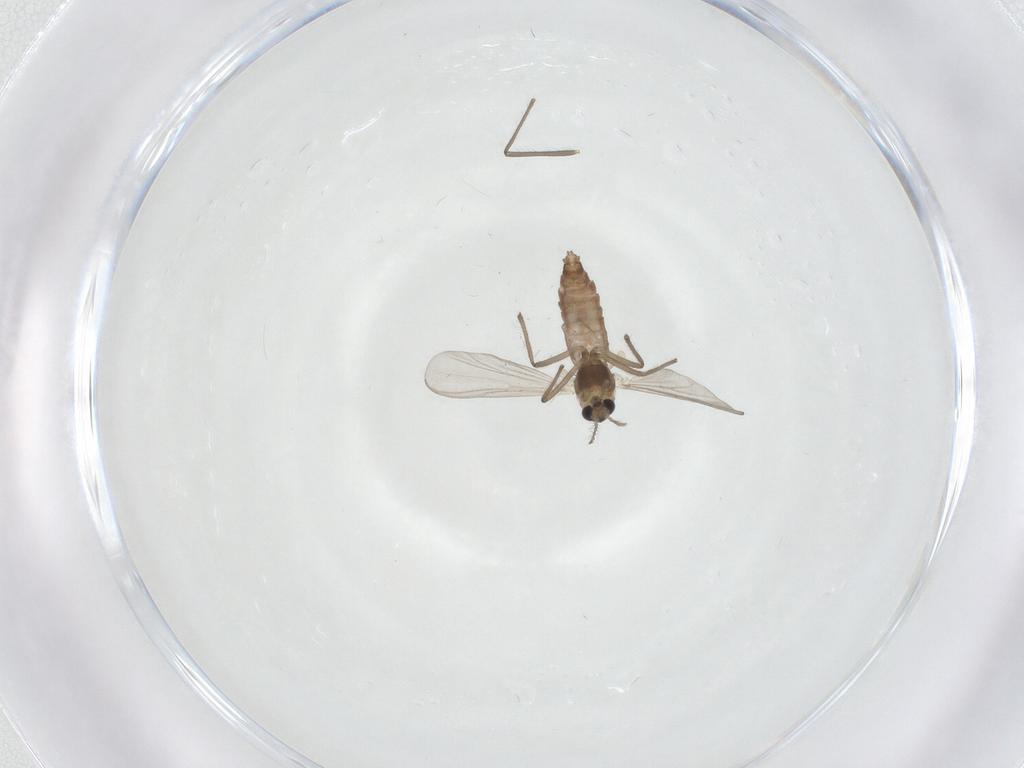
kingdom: Animalia
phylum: Arthropoda
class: Insecta
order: Diptera
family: Chironomidae
